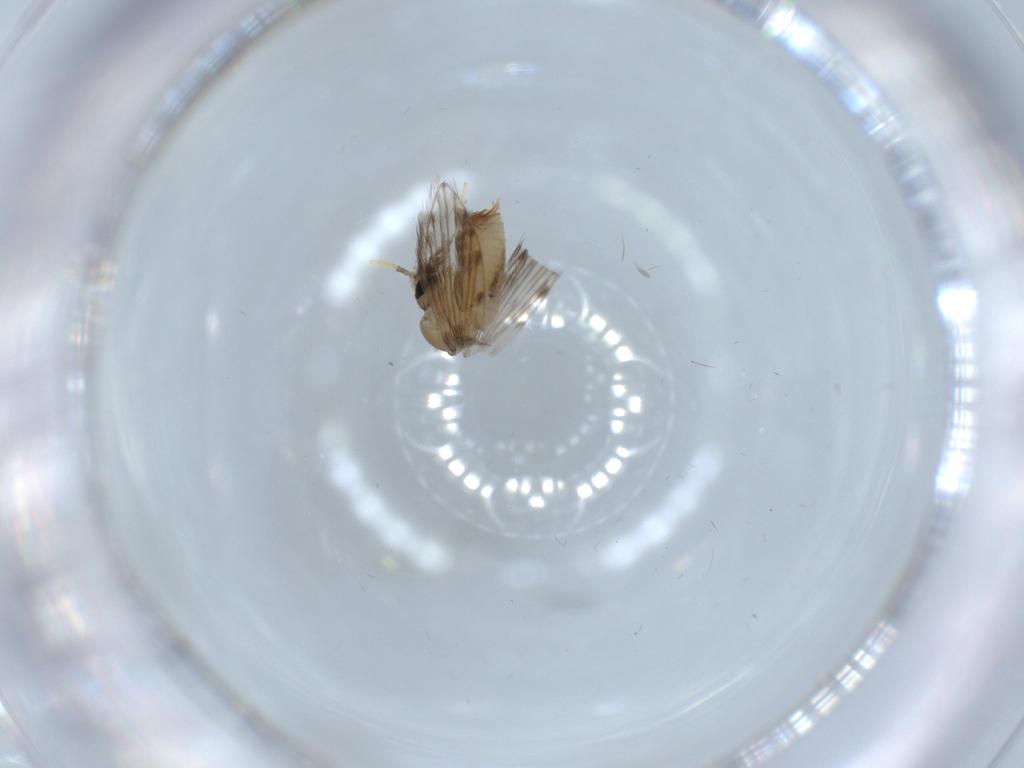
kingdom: Animalia
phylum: Arthropoda
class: Insecta
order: Diptera
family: Psychodidae
